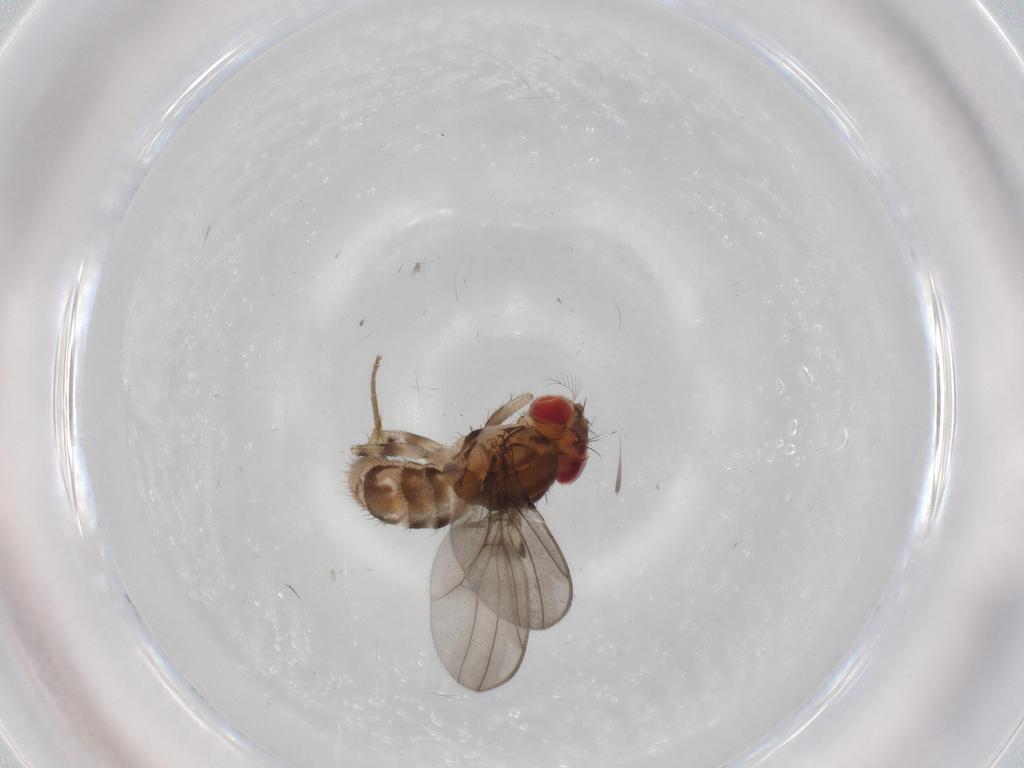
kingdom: Animalia
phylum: Arthropoda
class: Insecta
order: Diptera
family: Drosophilidae
